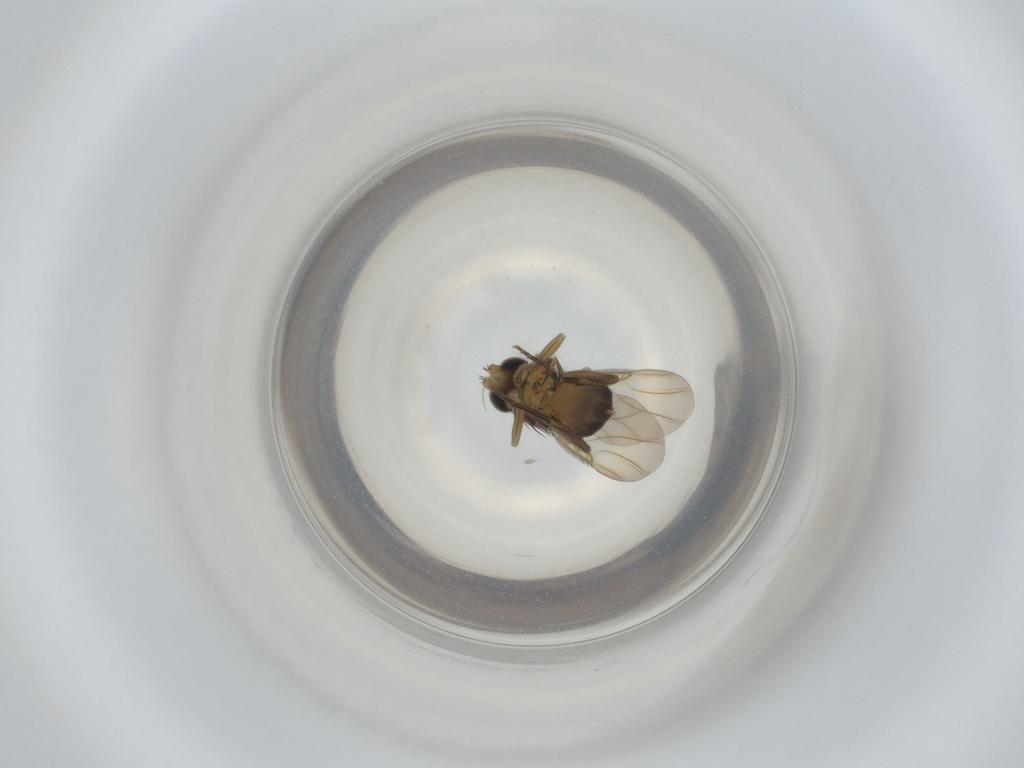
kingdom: Animalia
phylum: Arthropoda
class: Insecta
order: Diptera
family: Phoridae
